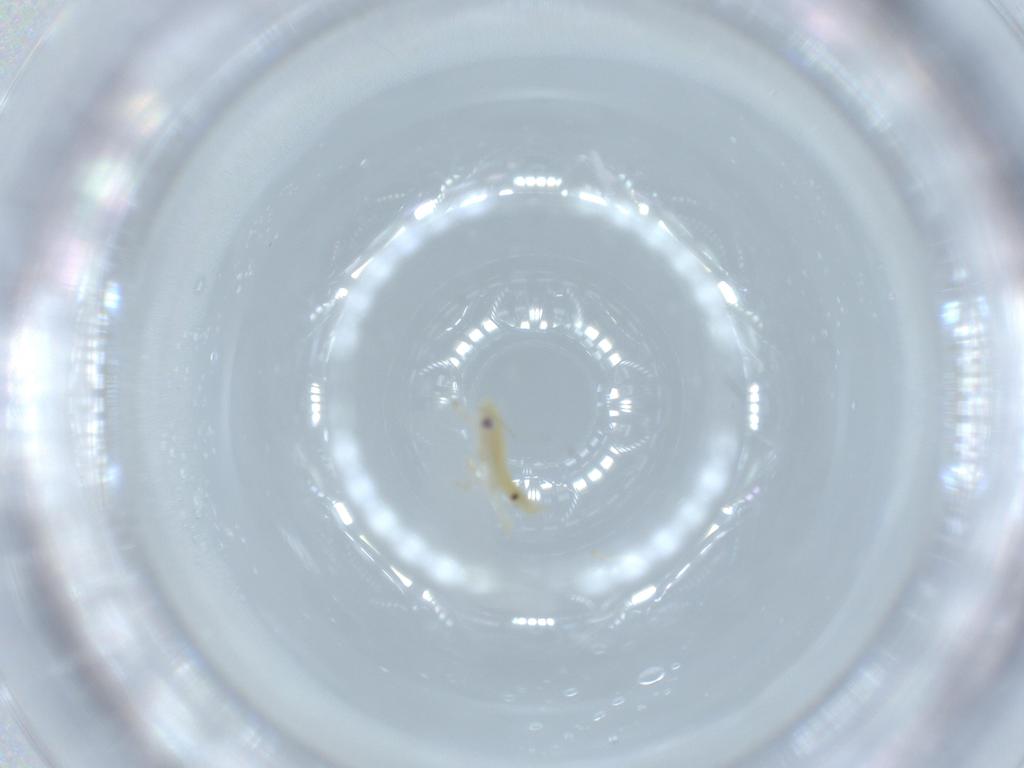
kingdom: Animalia
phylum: Arthropoda
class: Insecta
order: Hemiptera
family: Cicadellidae
